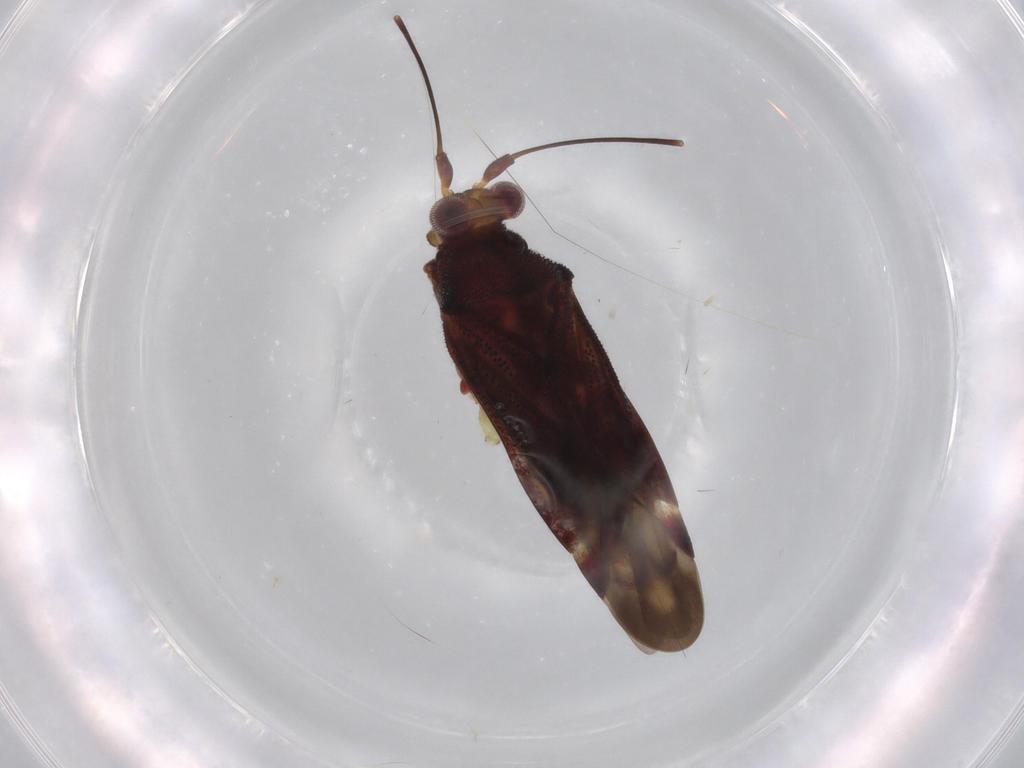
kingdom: Animalia
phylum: Arthropoda
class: Insecta
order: Hemiptera
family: Miridae
